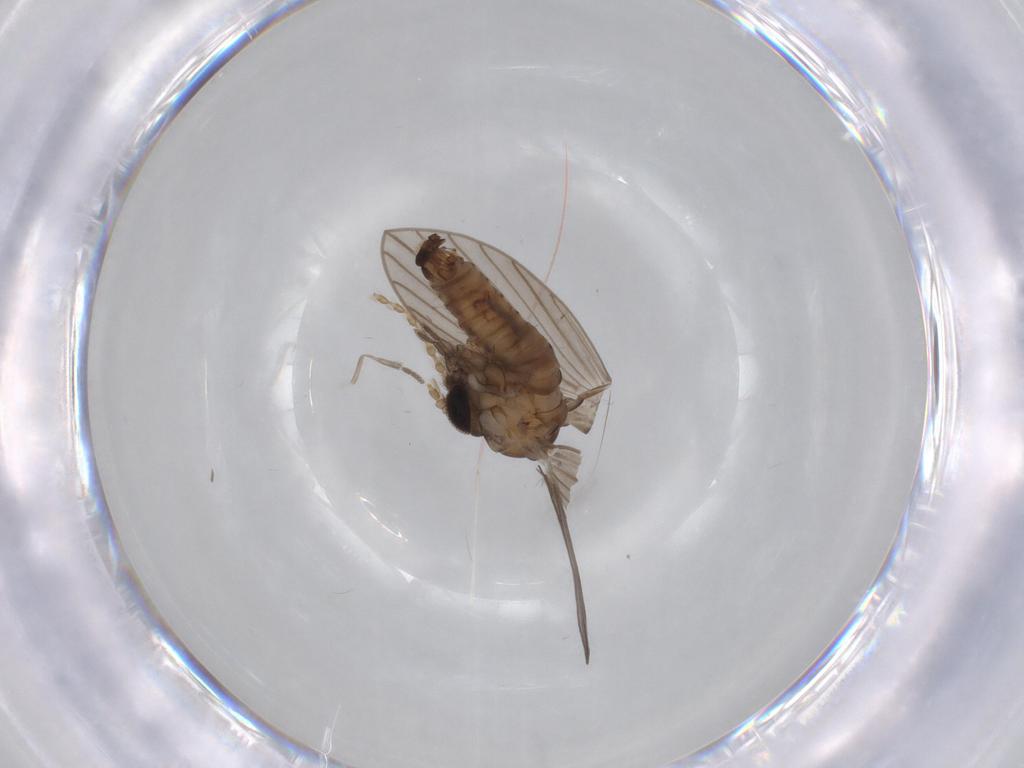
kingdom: Animalia
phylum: Arthropoda
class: Insecta
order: Diptera
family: Cecidomyiidae
